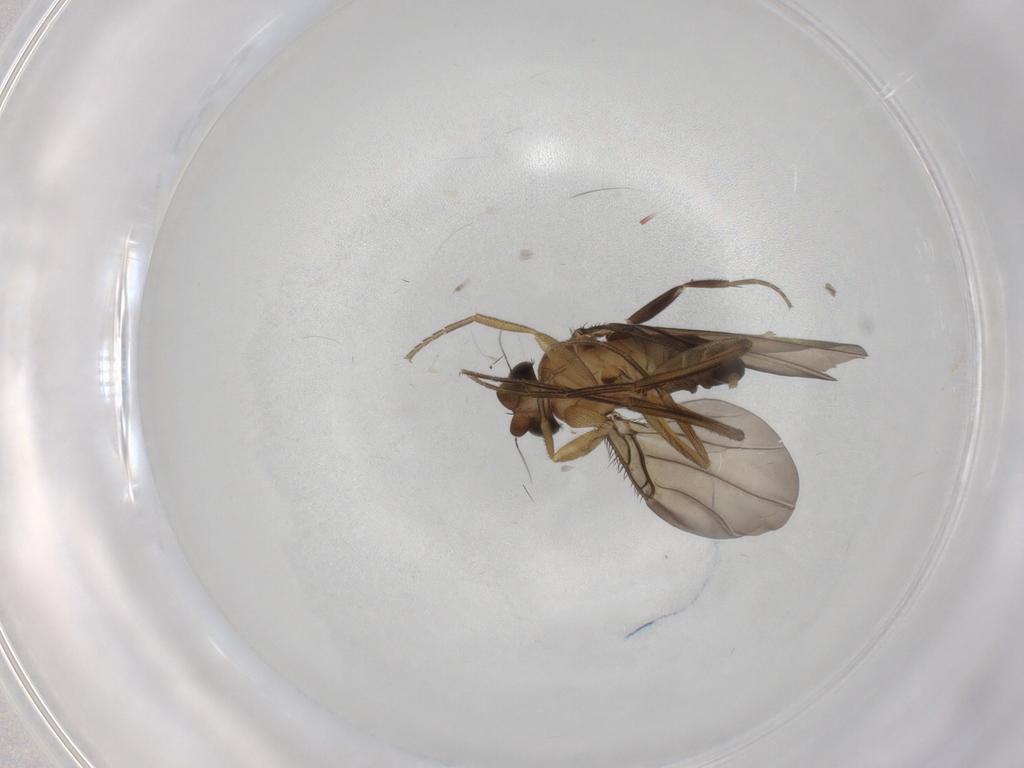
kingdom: Animalia
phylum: Arthropoda
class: Insecta
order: Diptera
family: Phoridae
